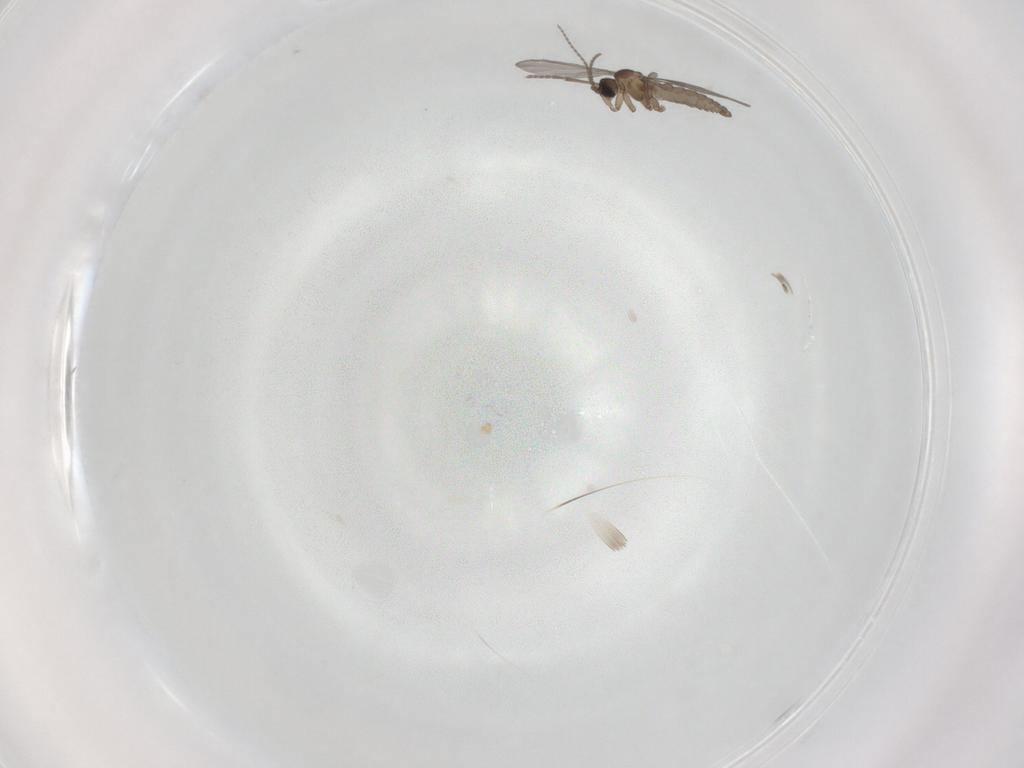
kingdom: Animalia
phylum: Arthropoda
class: Insecta
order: Diptera
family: Sciaridae
